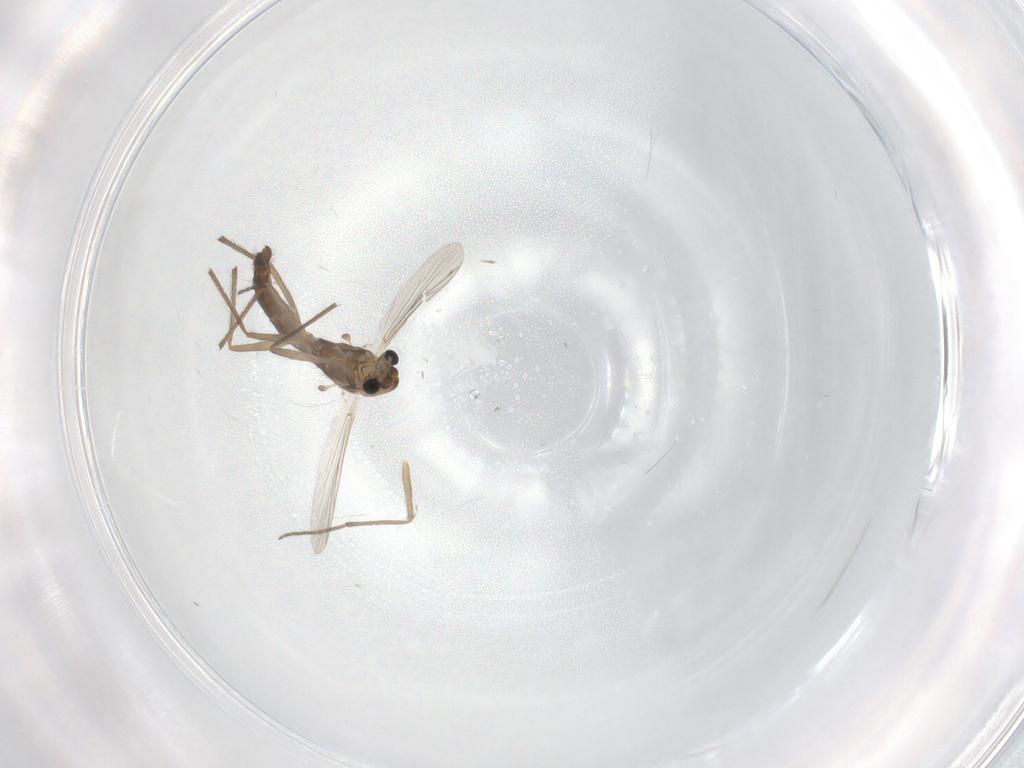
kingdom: Animalia
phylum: Arthropoda
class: Insecta
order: Diptera
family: Chironomidae
